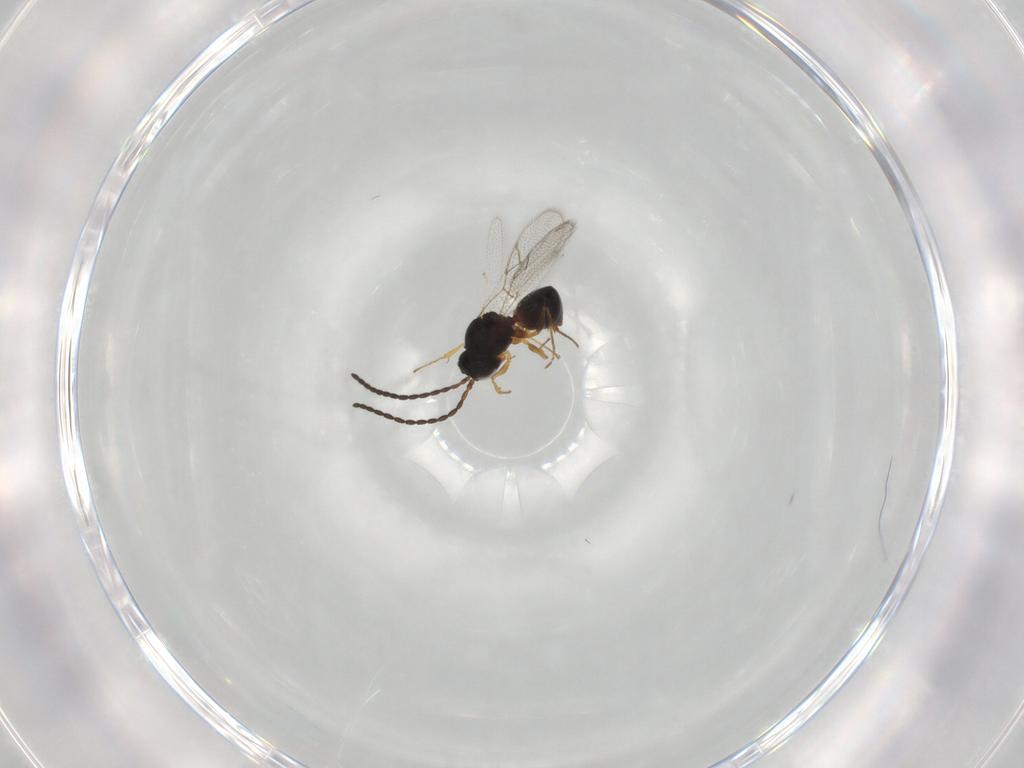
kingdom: Animalia
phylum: Arthropoda
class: Insecta
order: Hymenoptera
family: Figitidae
